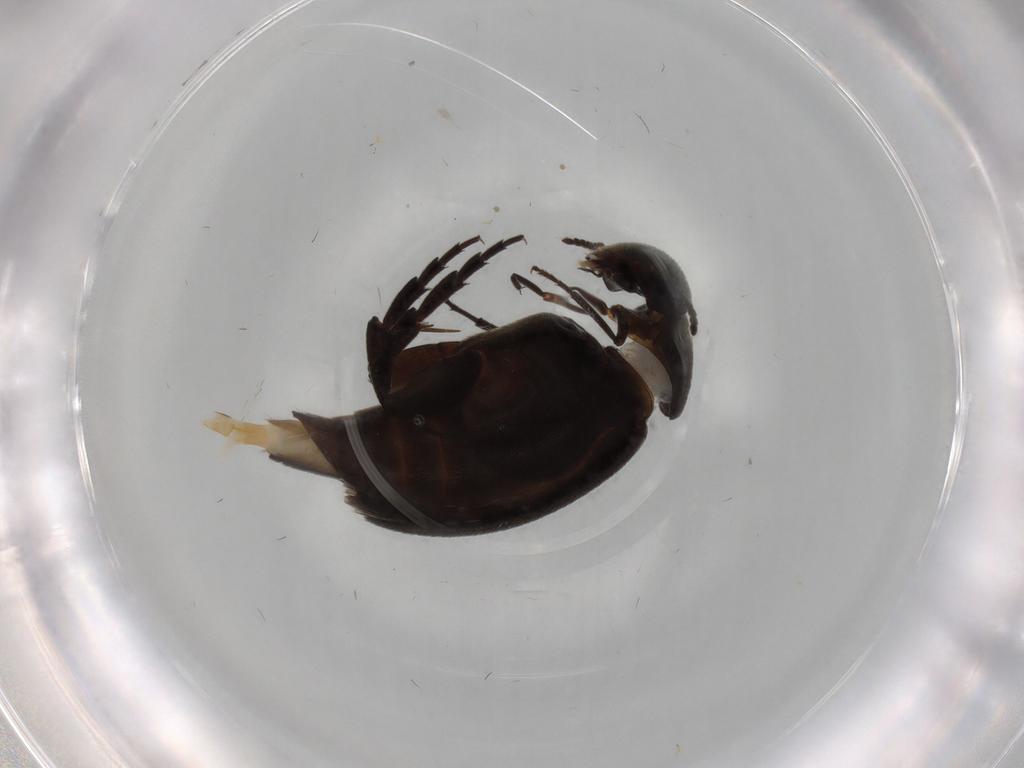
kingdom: Animalia
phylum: Arthropoda
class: Insecta
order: Coleoptera
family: Mordellidae
